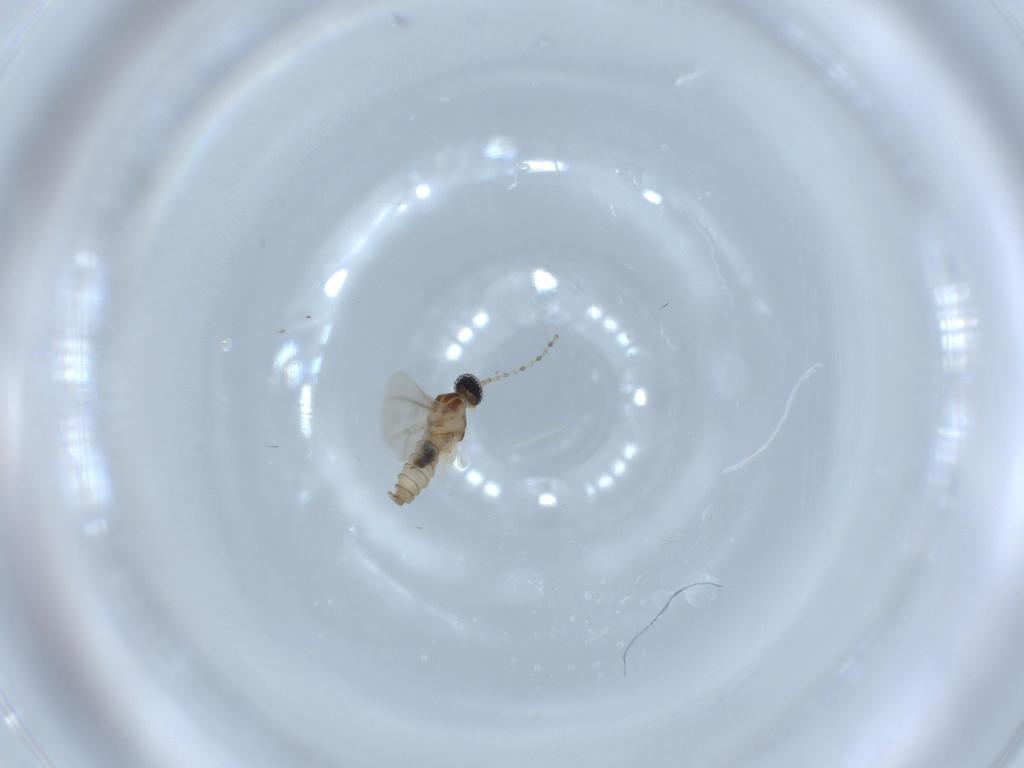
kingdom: Animalia
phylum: Arthropoda
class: Insecta
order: Diptera
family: Cecidomyiidae
